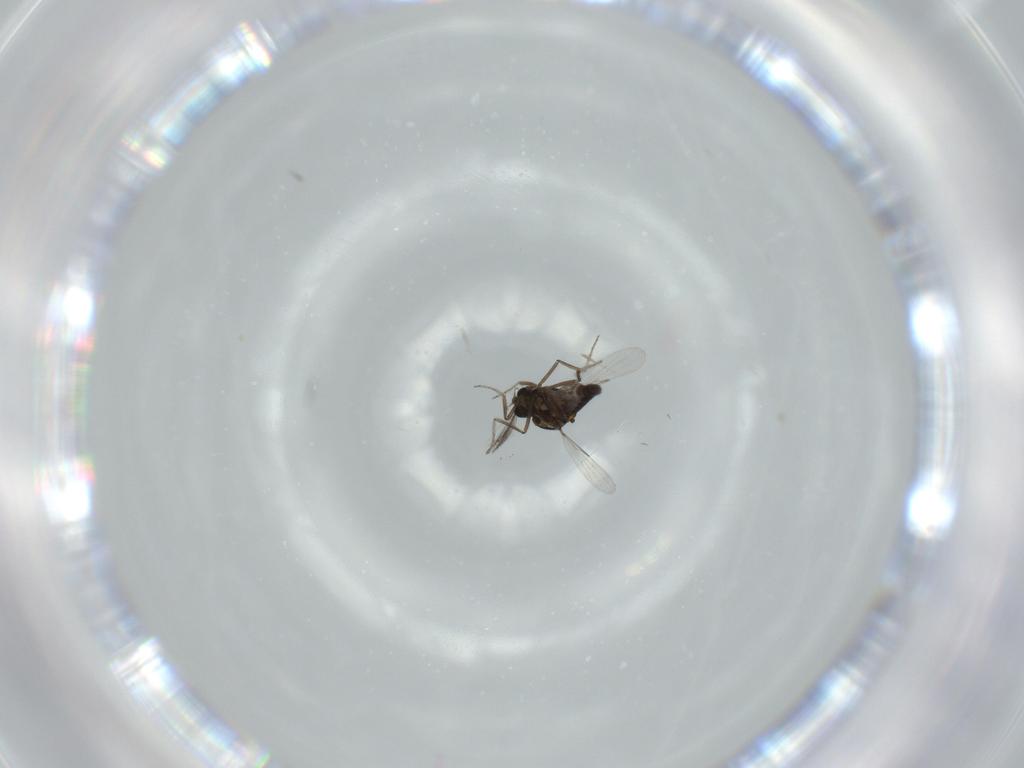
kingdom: Animalia
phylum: Arthropoda
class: Insecta
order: Diptera
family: Ceratopogonidae
